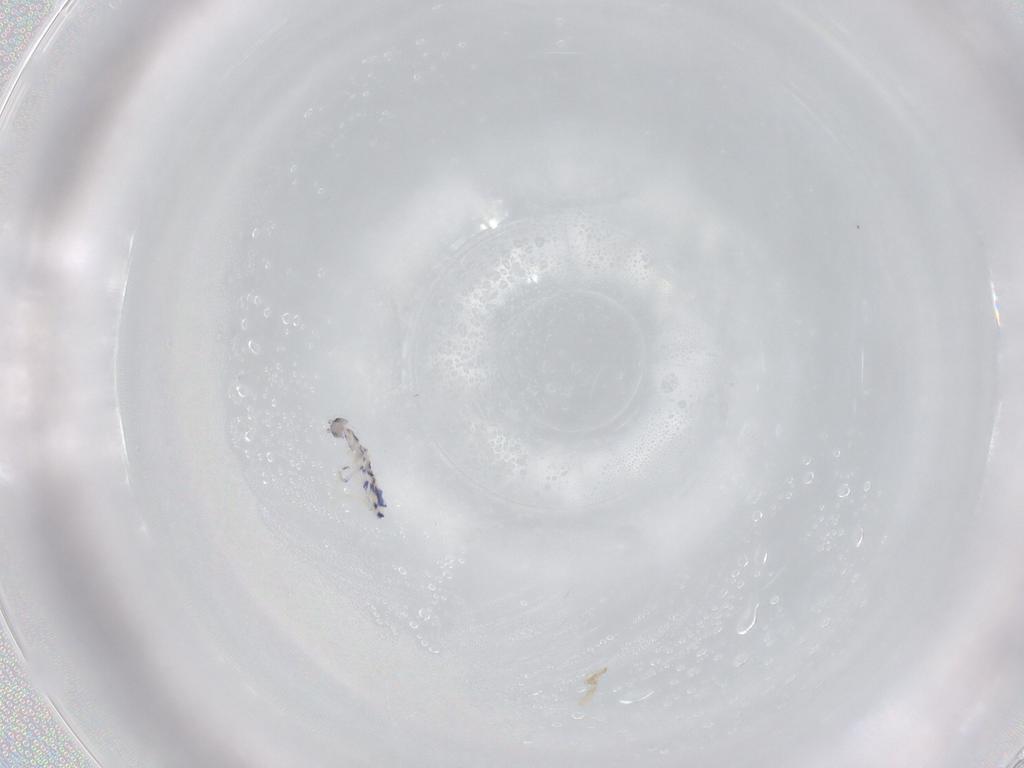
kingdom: Animalia
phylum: Arthropoda
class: Collembola
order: Entomobryomorpha
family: Entomobryidae
